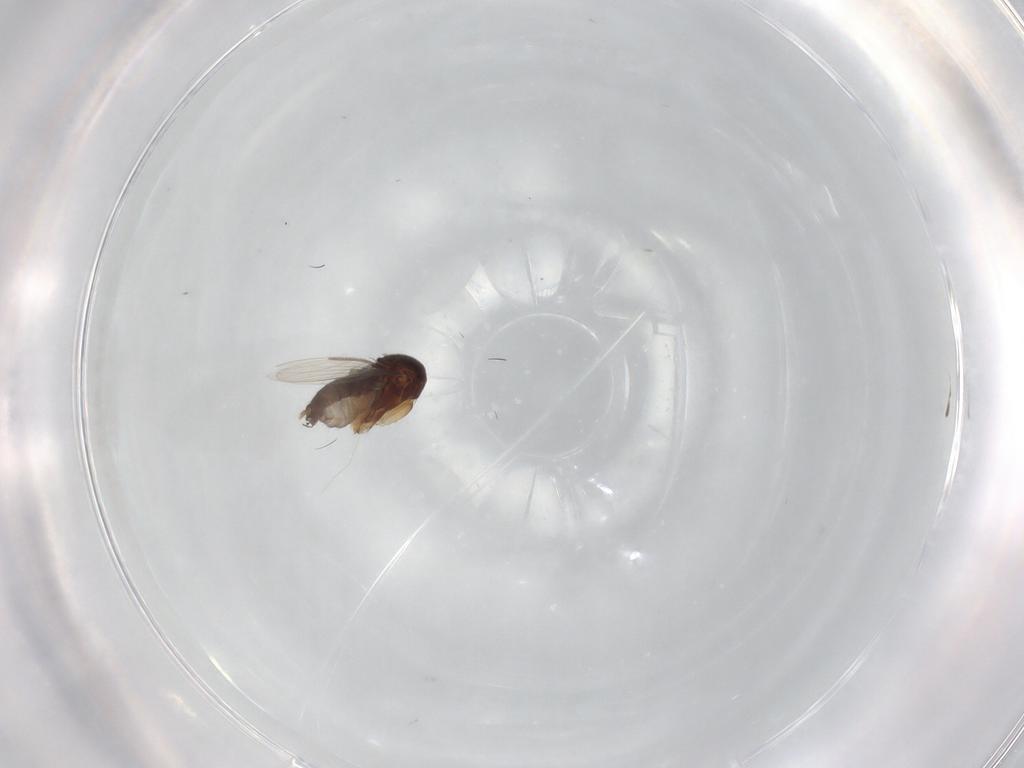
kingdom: Animalia
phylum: Arthropoda
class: Insecta
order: Diptera
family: Phoridae
